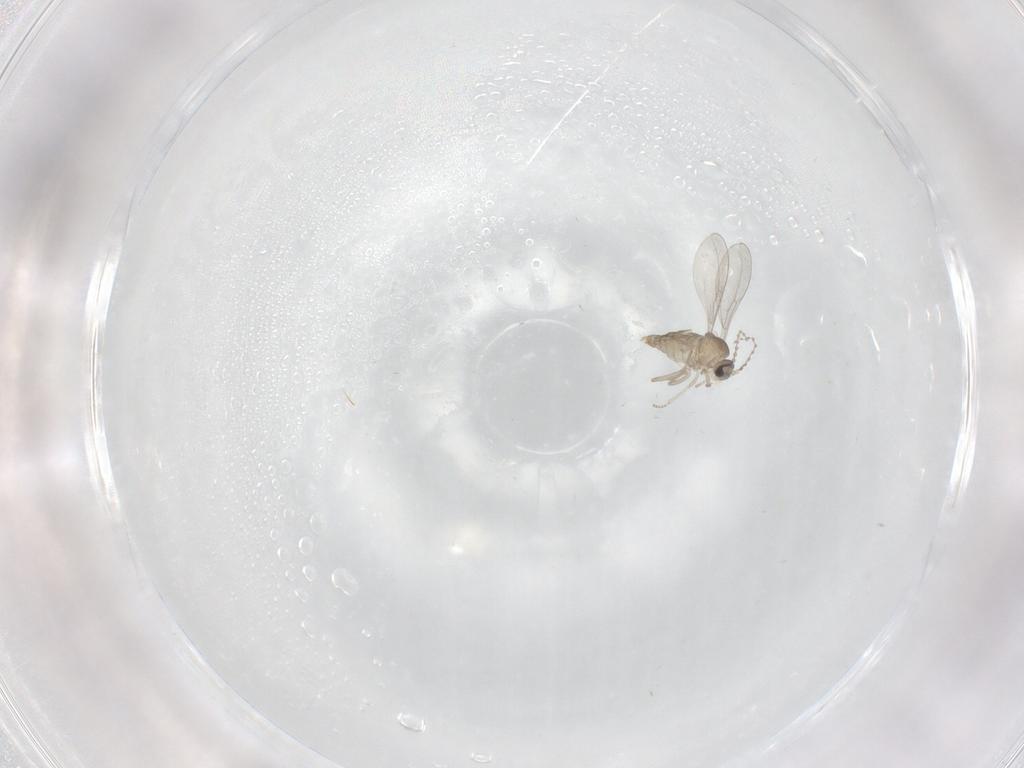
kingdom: Animalia
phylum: Arthropoda
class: Insecta
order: Diptera
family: Cecidomyiidae
